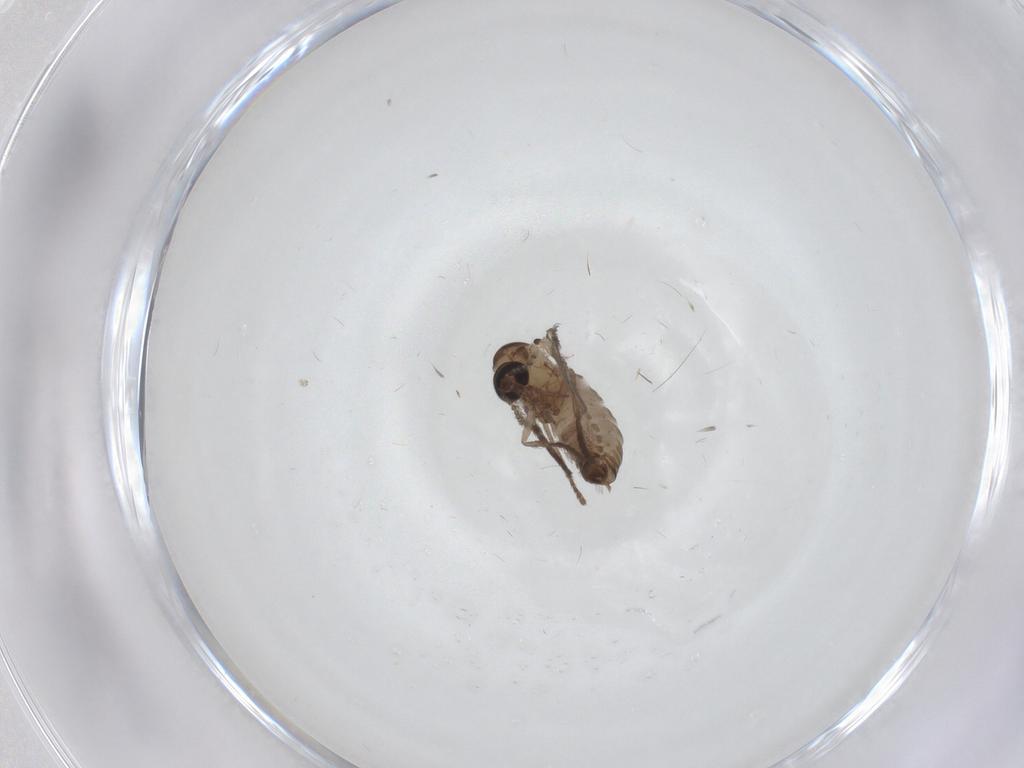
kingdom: Animalia
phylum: Arthropoda
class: Insecta
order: Diptera
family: Psychodidae
